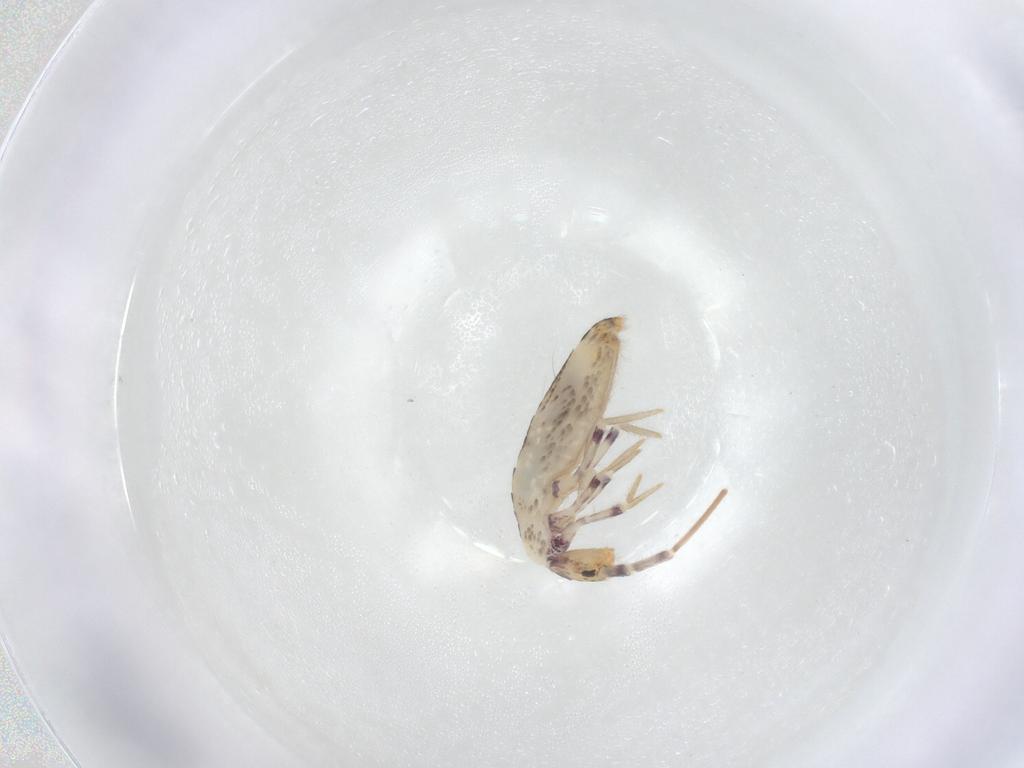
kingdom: Animalia
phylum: Arthropoda
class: Collembola
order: Entomobryomorpha
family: Entomobryidae
